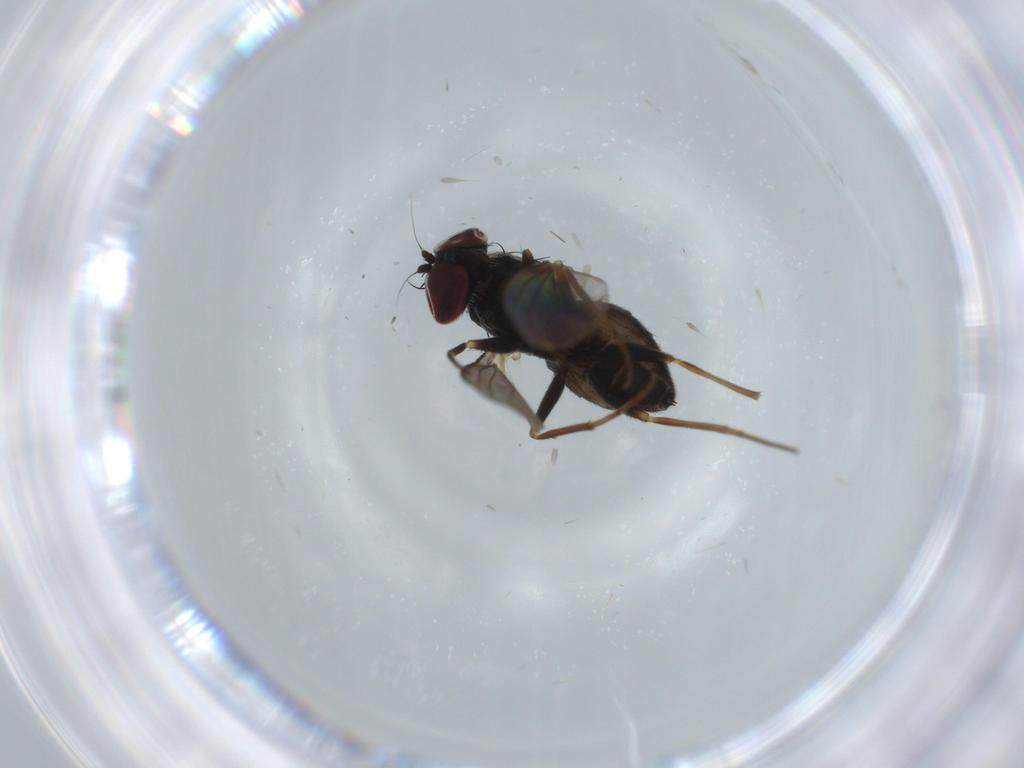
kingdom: Animalia
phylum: Arthropoda
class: Insecta
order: Diptera
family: Dolichopodidae
